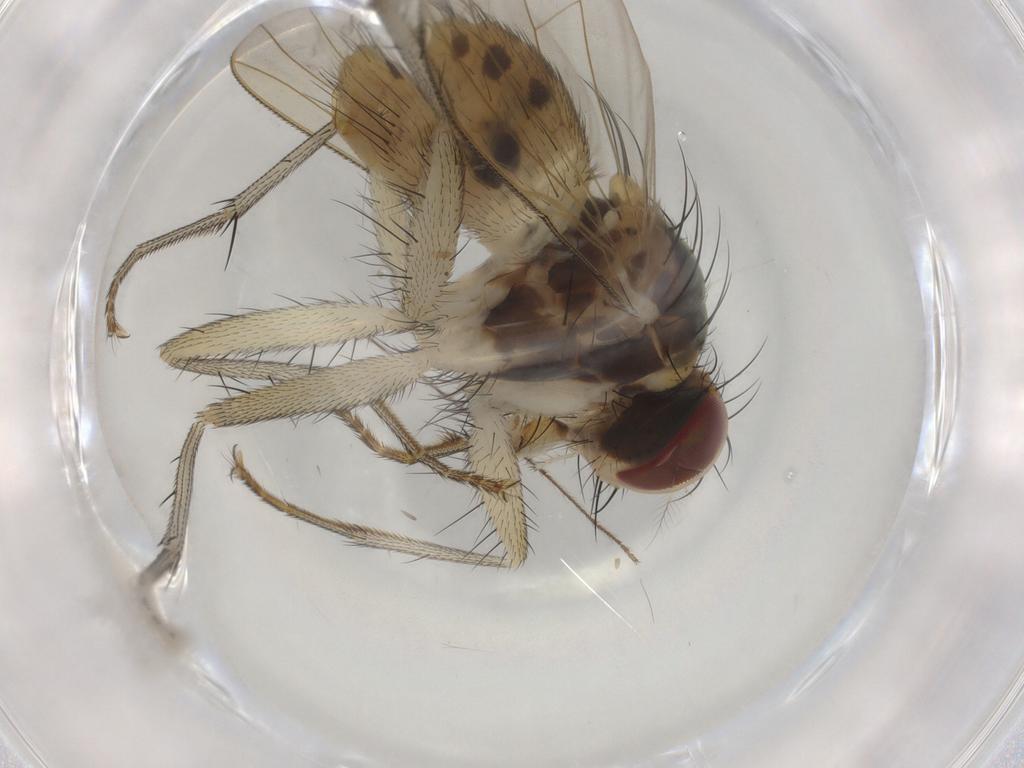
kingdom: Animalia
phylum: Arthropoda
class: Insecta
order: Diptera
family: Muscidae
